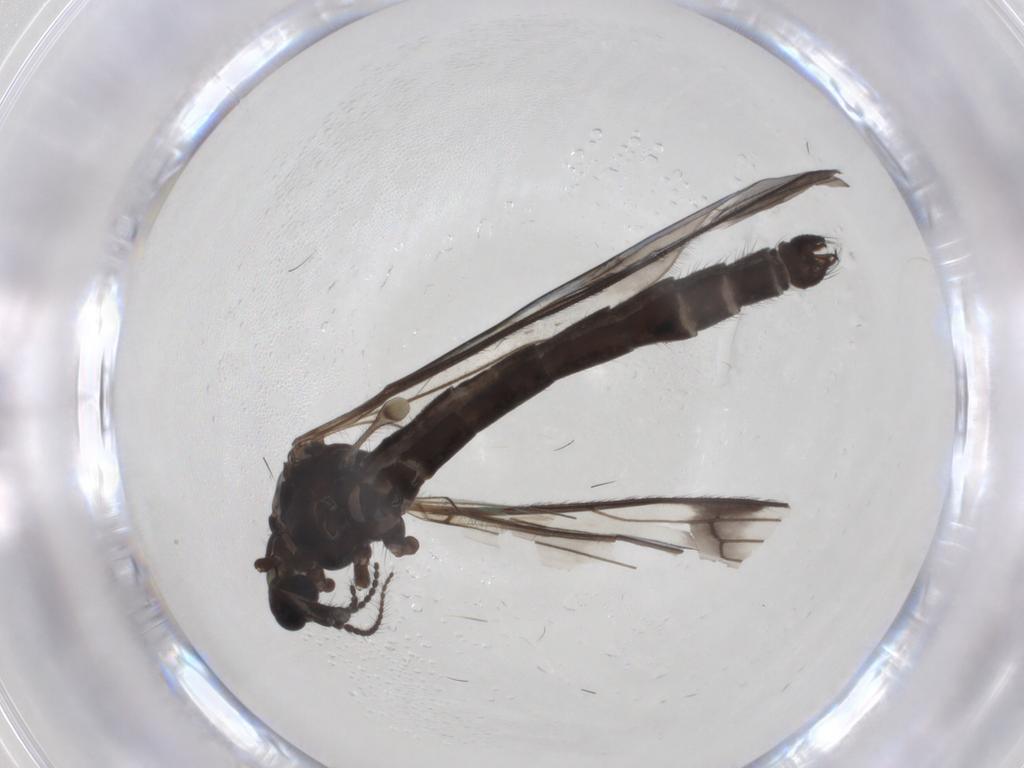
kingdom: Animalia
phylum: Arthropoda
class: Insecta
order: Diptera
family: Limoniidae
